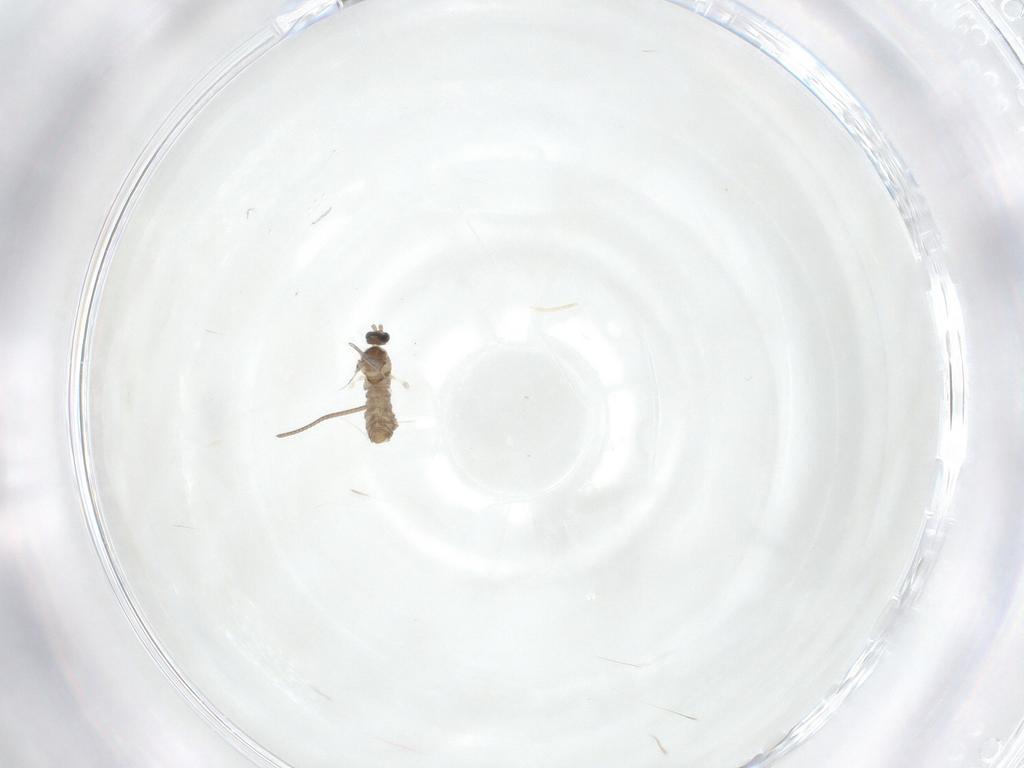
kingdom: Animalia
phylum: Arthropoda
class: Insecta
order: Diptera
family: Cecidomyiidae
